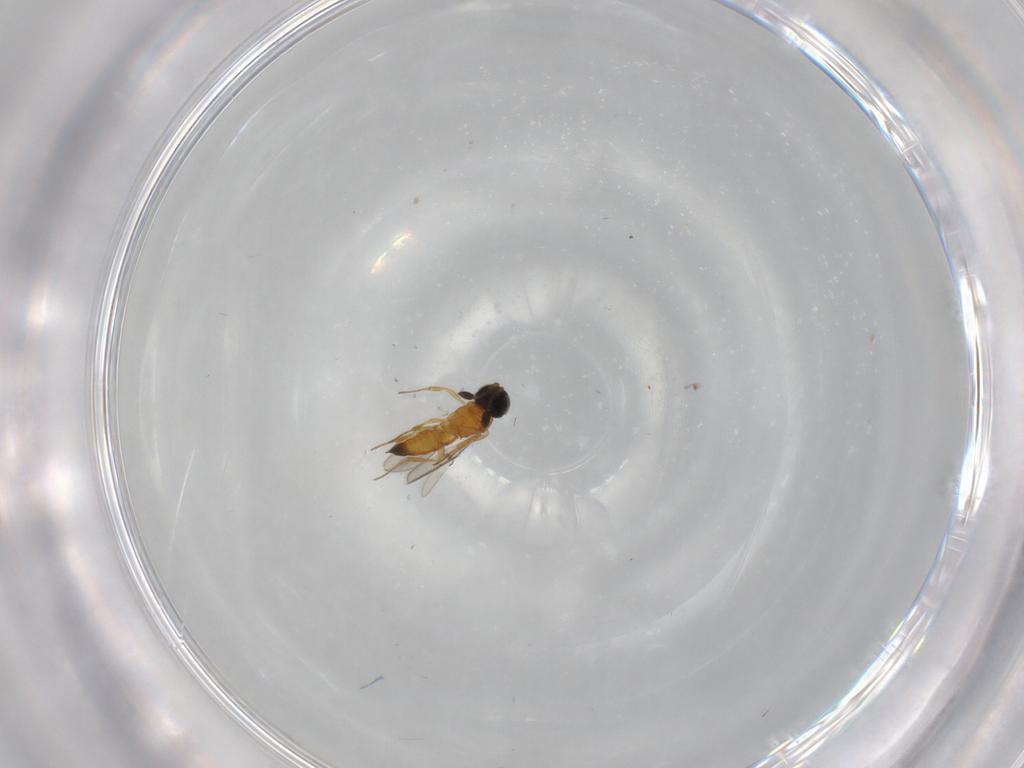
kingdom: Animalia
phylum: Arthropoda
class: Insecta
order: Hymenoptera
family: Scelionidae
